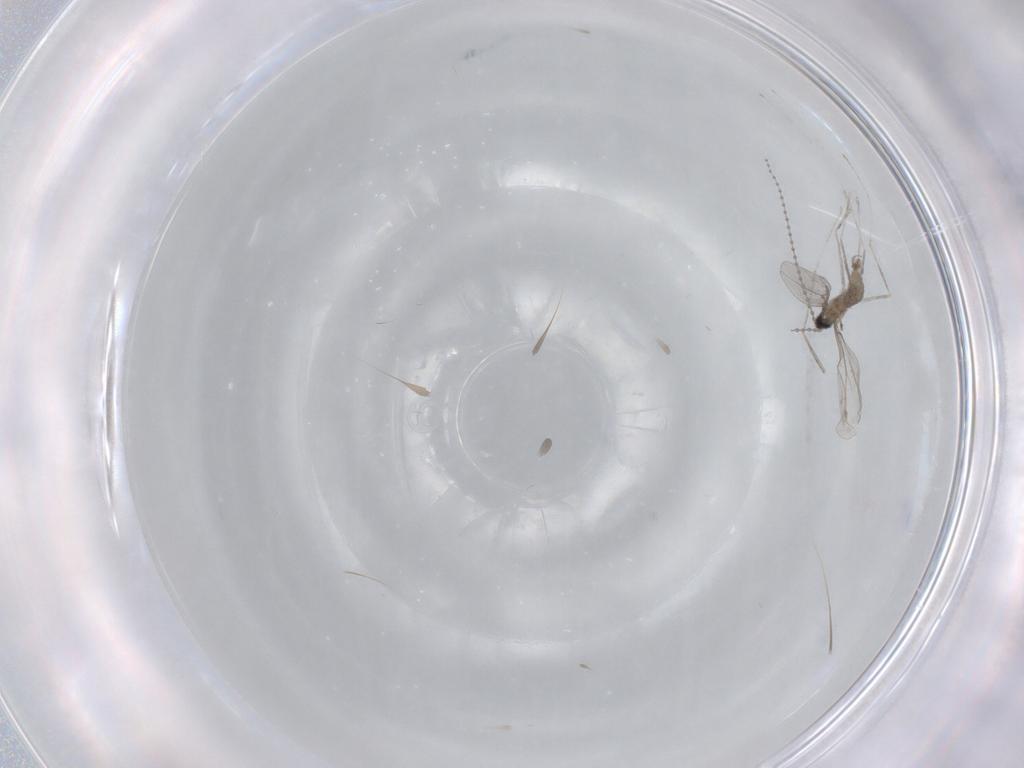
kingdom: Animalia
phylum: Arthropoda
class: Insecta
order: Diptera
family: Cecidomyiidae
